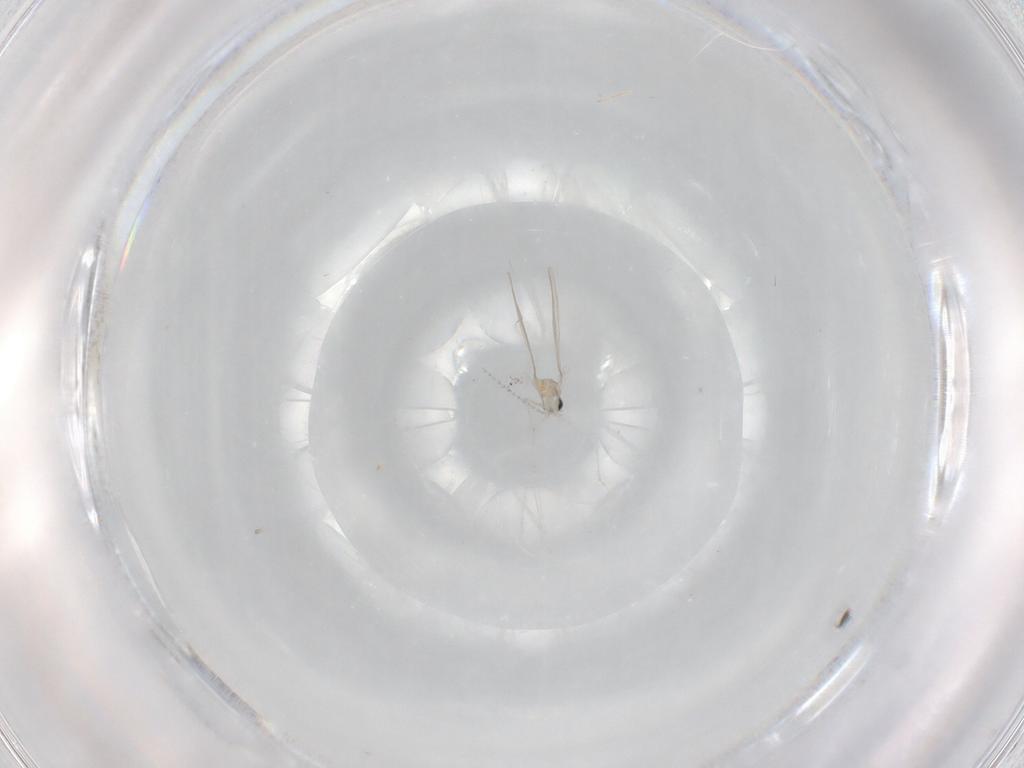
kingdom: Animalia
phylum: Arthropoda
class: Insecta
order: Diptera
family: Cecidomyiidae
